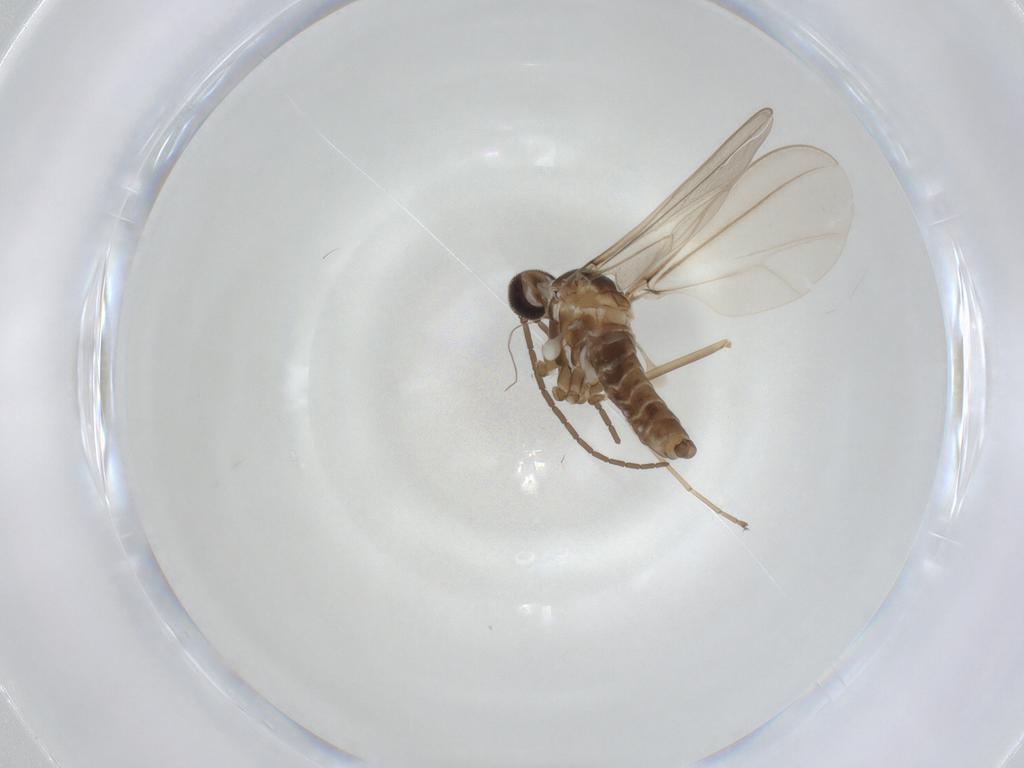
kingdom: Animalia
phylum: Arthropoda
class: Insecta
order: Diptera
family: Cecidomyiidae
